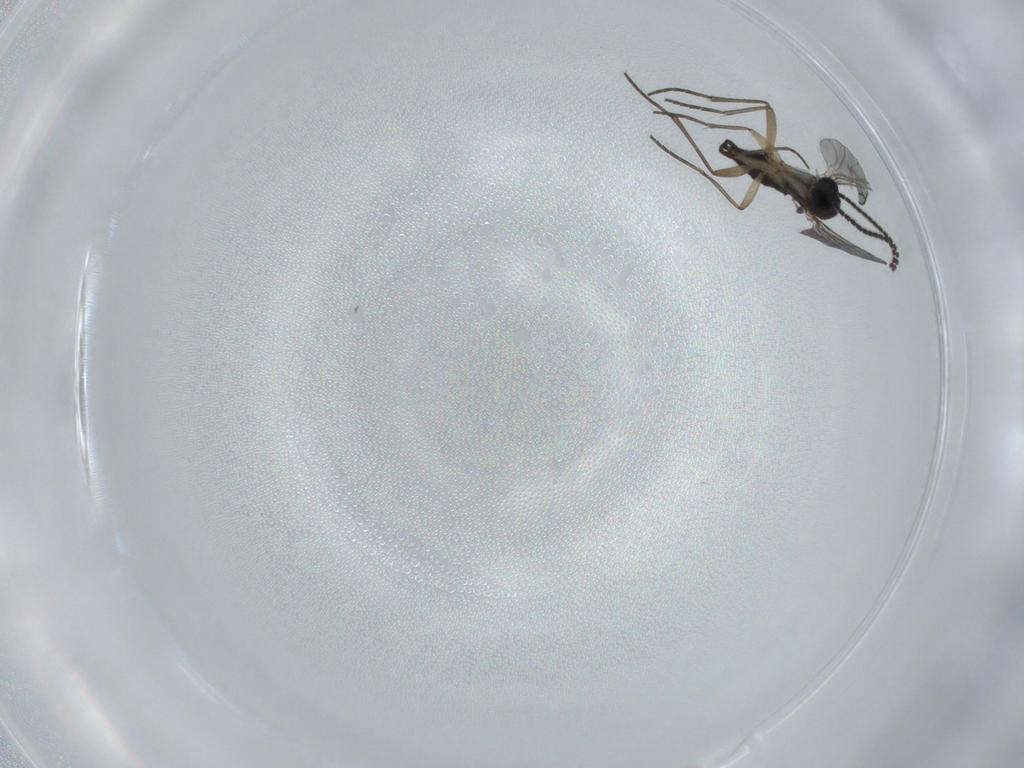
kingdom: Animalia
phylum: Arthropoda
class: Insecta
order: Diptera
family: Sciaridae
